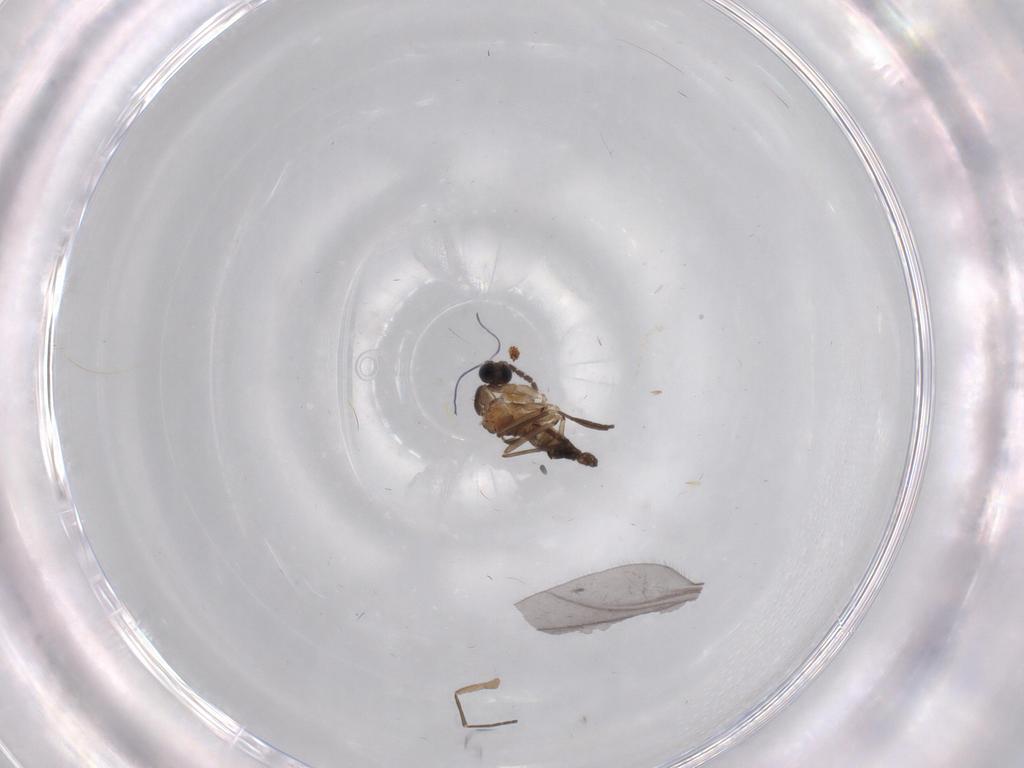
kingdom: Animalia
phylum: Arthropoda
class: Insecta
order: Diptera
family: Sciaridae
